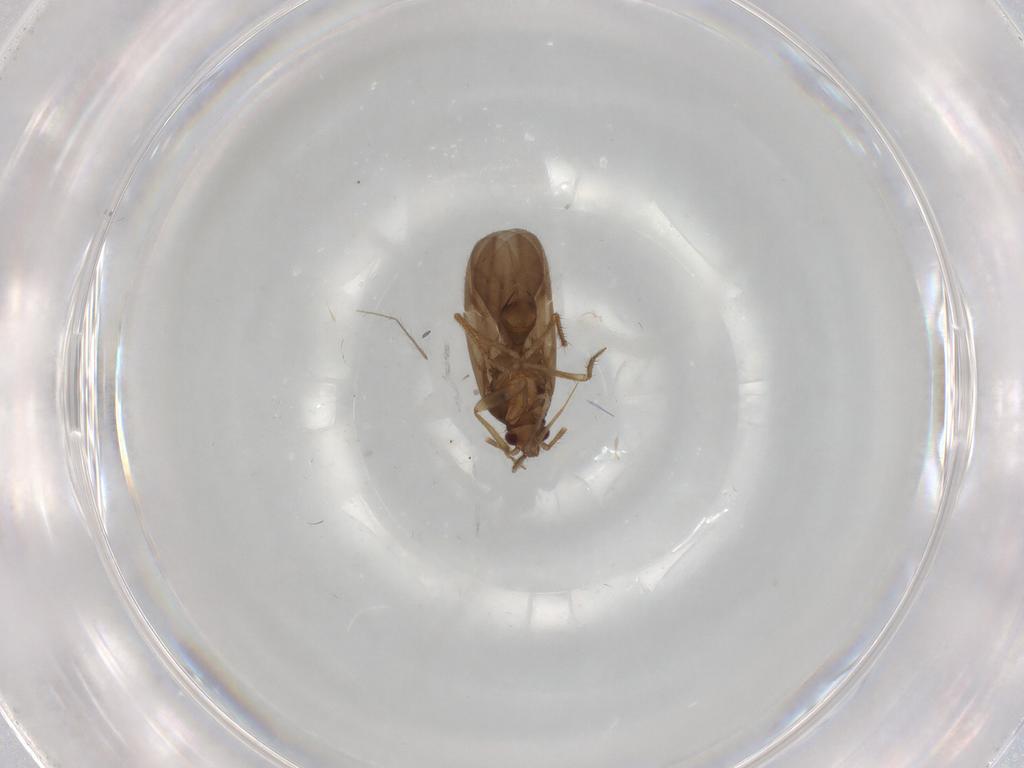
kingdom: Animalia
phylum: Arthropoda
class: Insecta
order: Hemiptera
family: Ceratocombidae
